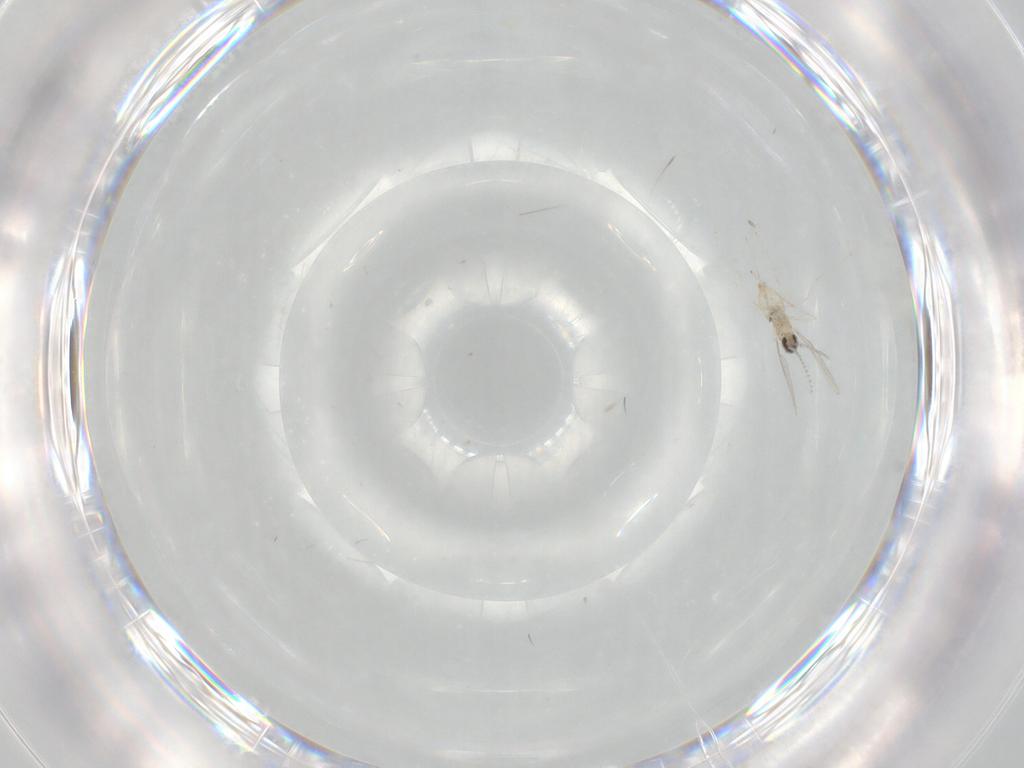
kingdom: Animalia
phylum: Arthropoda
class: Insecta
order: Diptera
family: Cecidomyiidae
